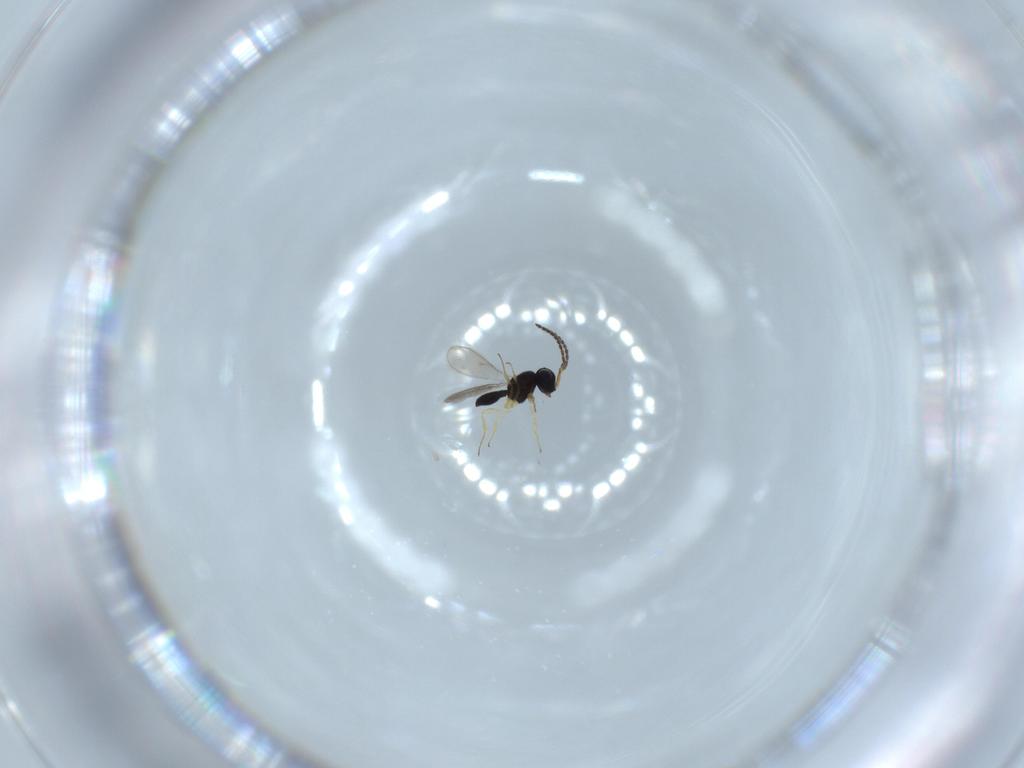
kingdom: Animalia
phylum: Arthropoda
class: Insecta
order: Hymenoptera
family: Scelionidae
